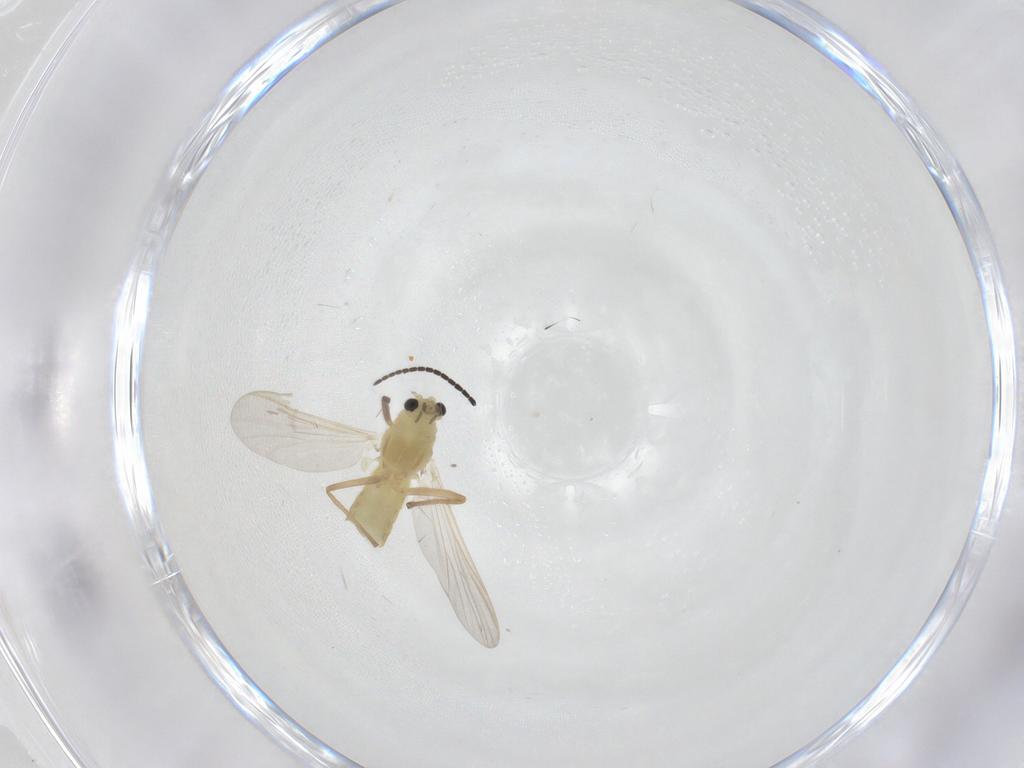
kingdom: Animalia
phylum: Arthropoda
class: Insecta
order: Diptera
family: Chironomidae
